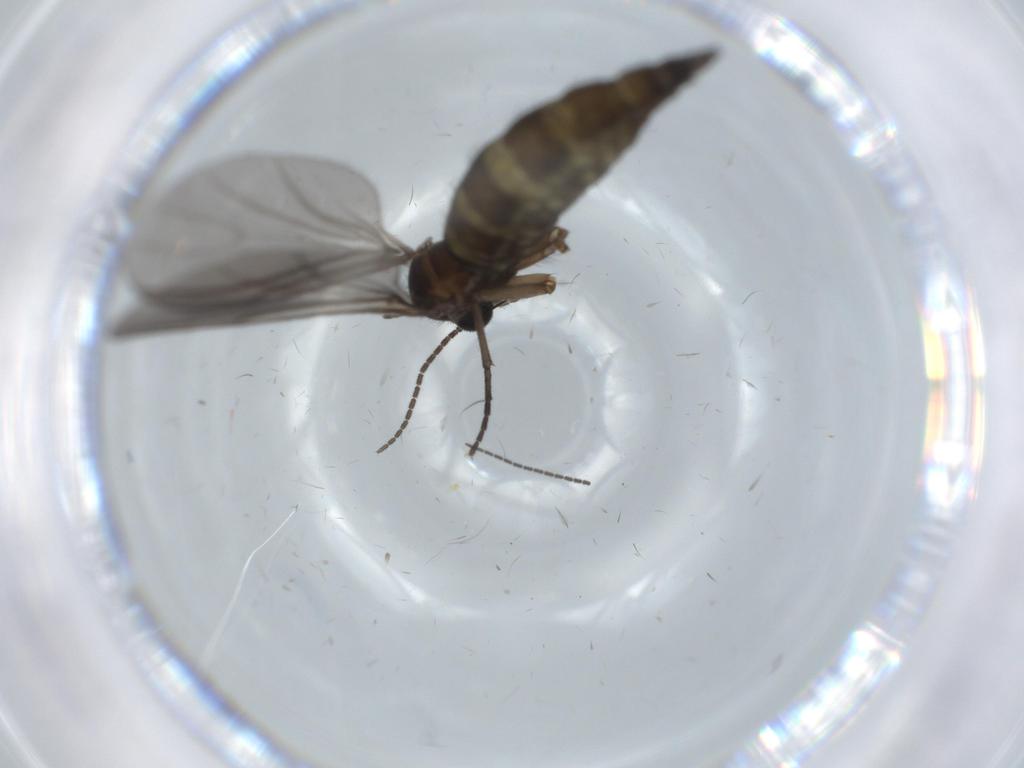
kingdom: Animalia
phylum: Arthropoda
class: Insecta
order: Diptera
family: Sciaridae
